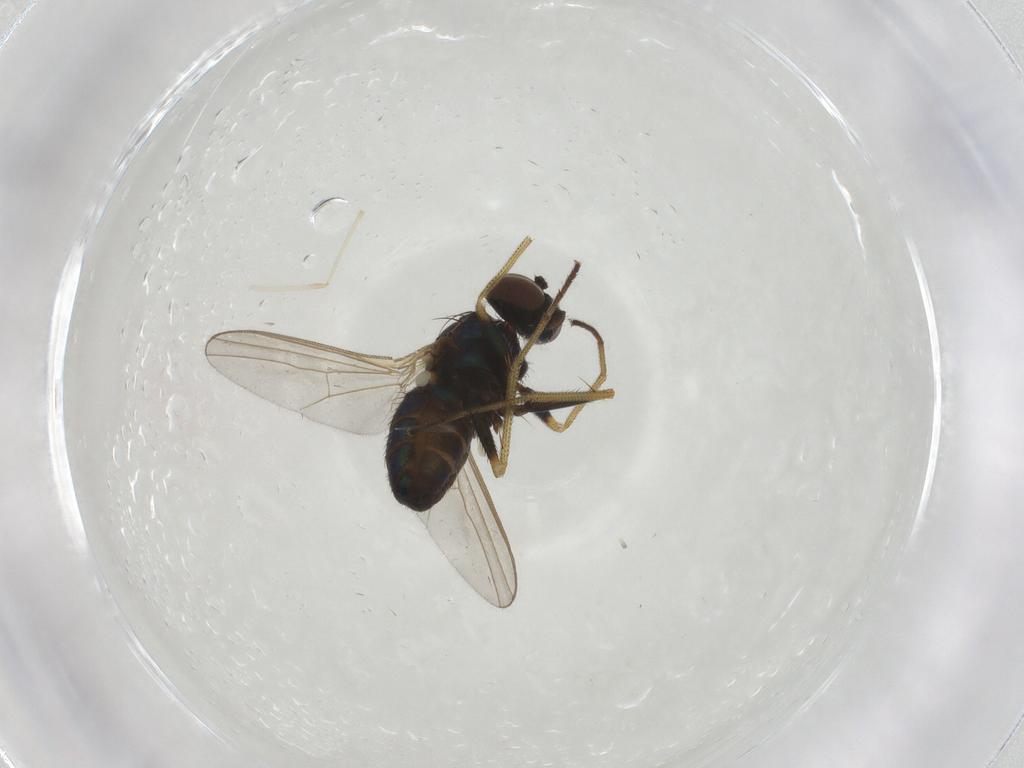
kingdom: Animalia
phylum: Arthropoda
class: Insecta
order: Diptera
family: Dolichopodidae
